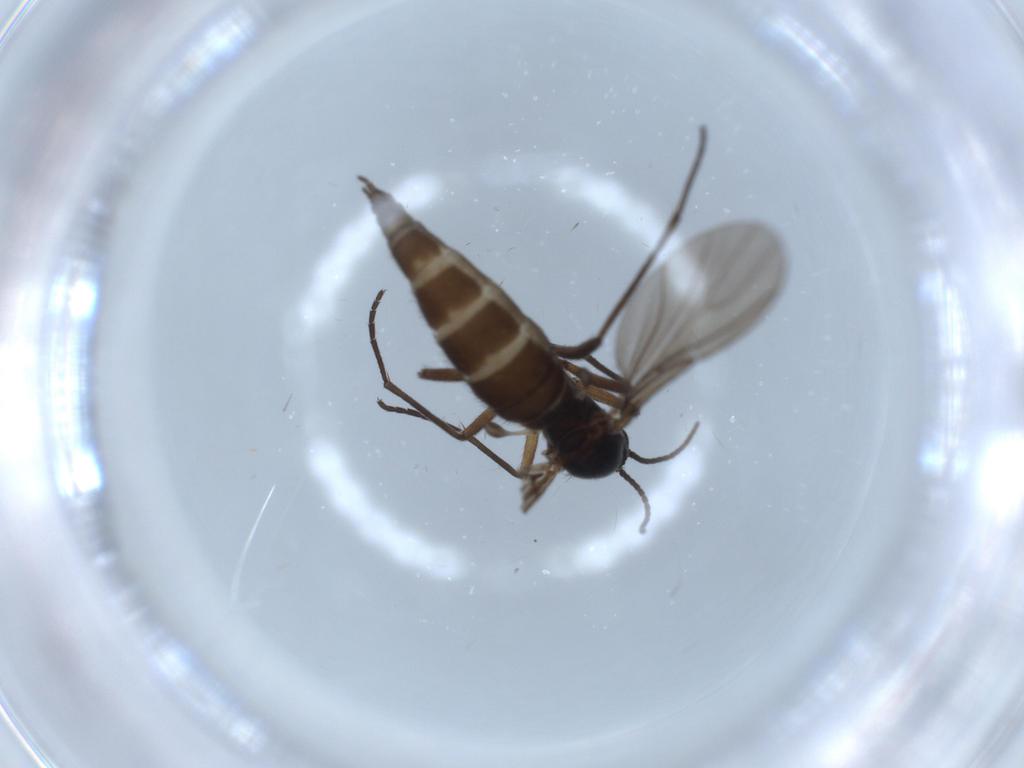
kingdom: Animalia
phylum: Arthropoda
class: Insecta
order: Diptera
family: Sciaridae
